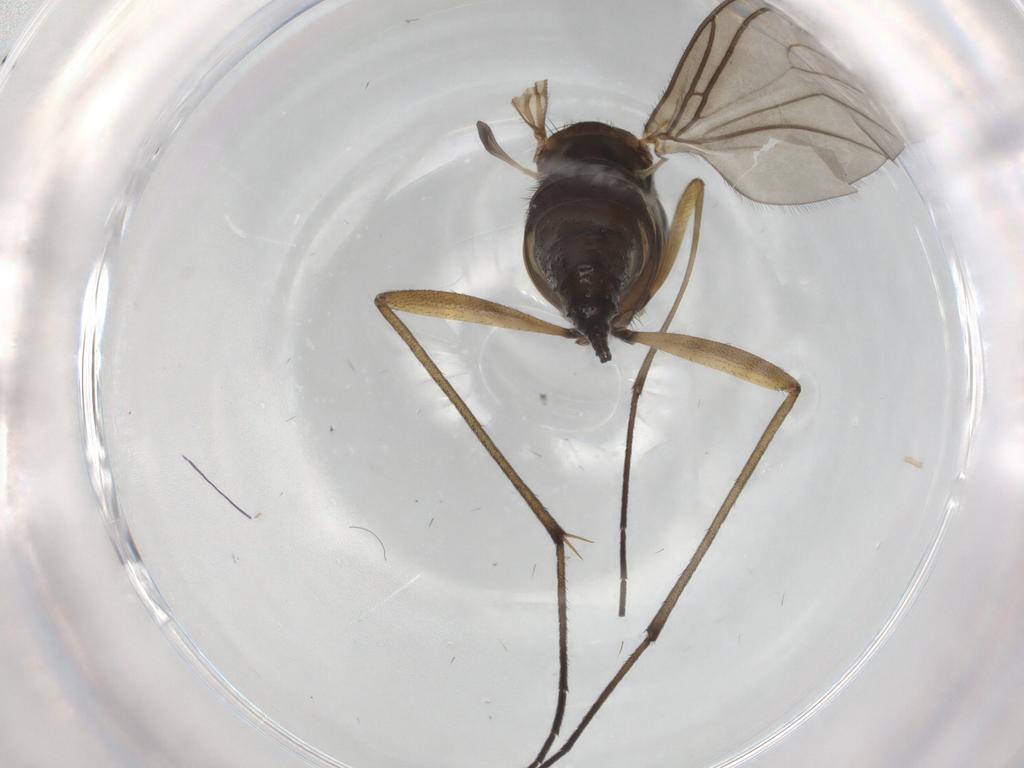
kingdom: Animalia
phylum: Arthropoda
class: Insecta
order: Diptera
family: Sciaridae
